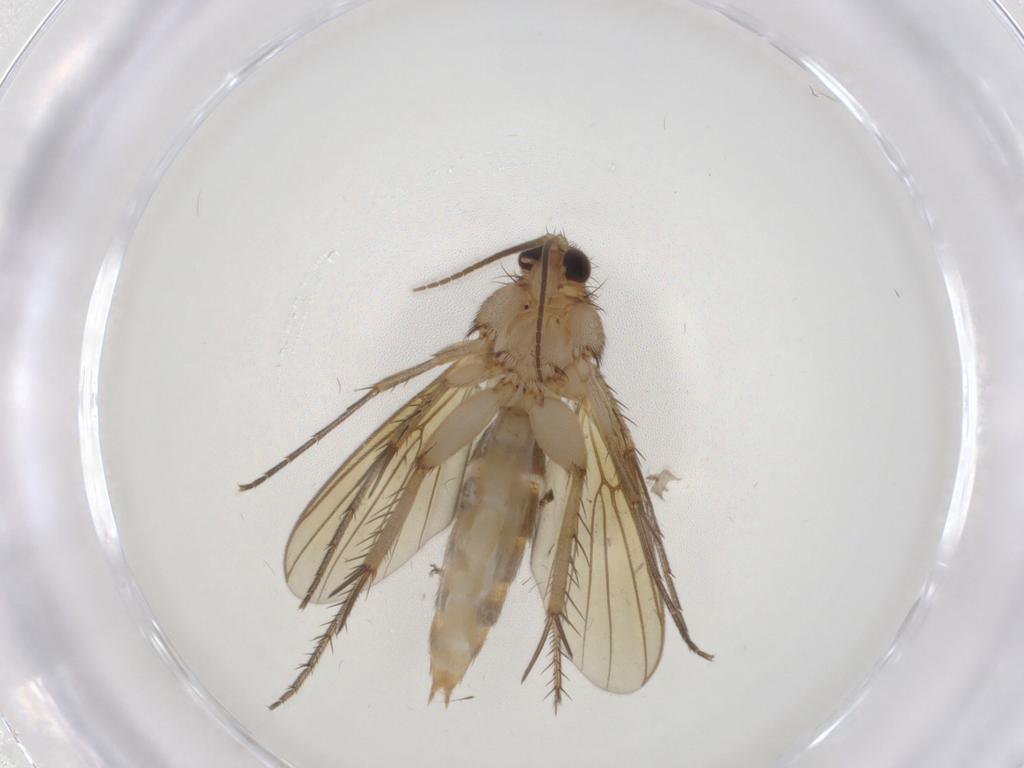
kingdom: Animalia
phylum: Arthropoda
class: Insecta
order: Diptera
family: Mycetophilidae
